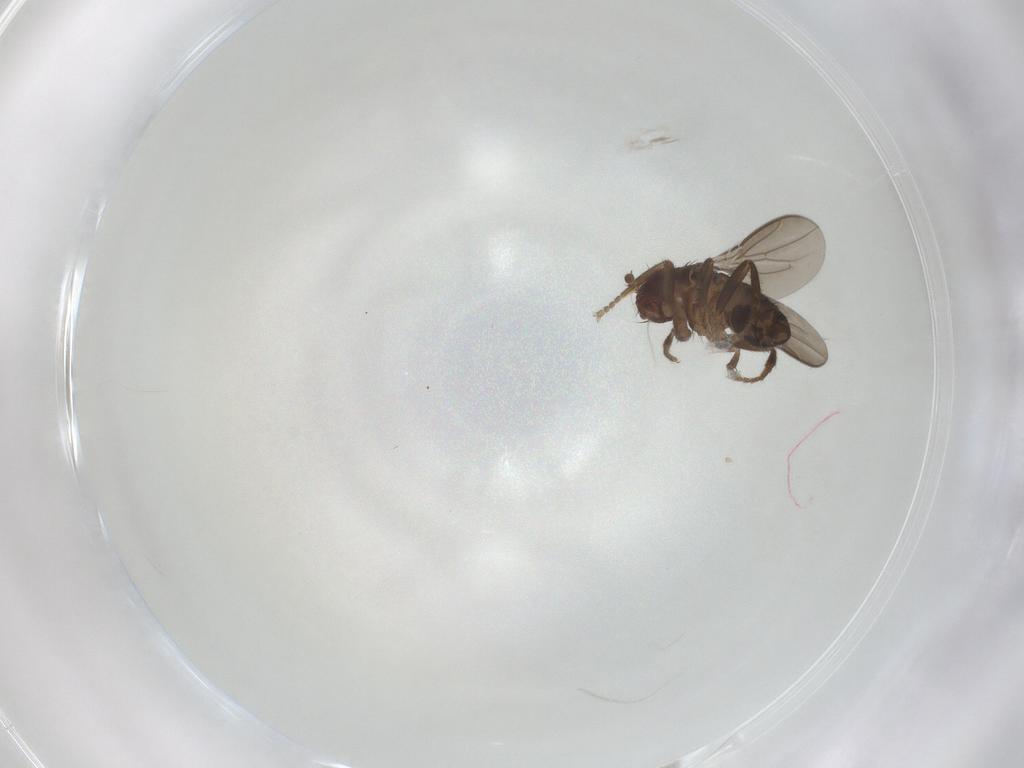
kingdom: Animalia
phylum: Arthropoda
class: Insecta
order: Diptera
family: Sphaeroceridae
